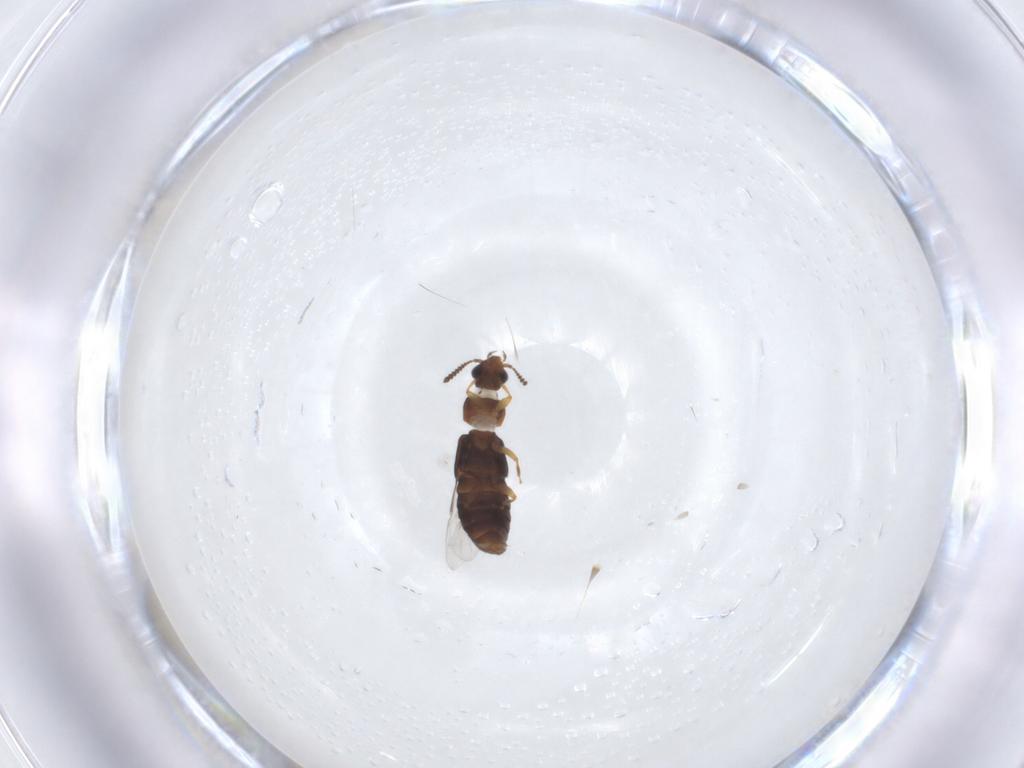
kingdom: Animalia
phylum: Arthropoda
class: Insecta
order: Coleoptera
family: Staphylinidae
